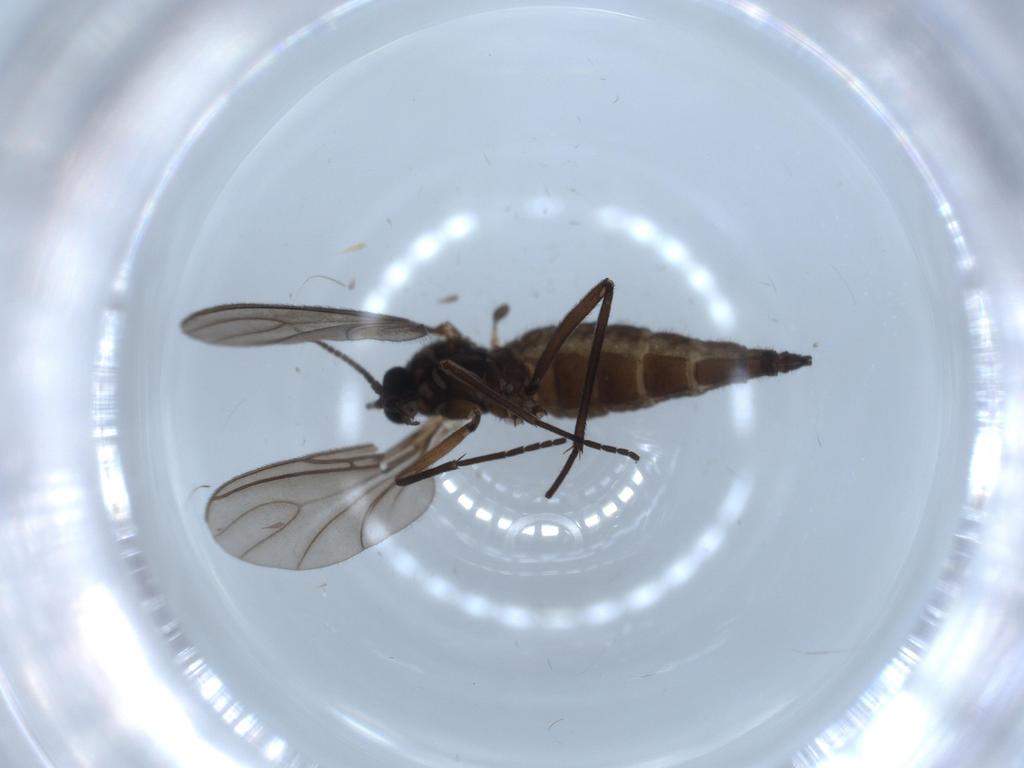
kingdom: Animalia
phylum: Arthropoda
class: Insecta
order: Diptera
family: Sciaridae
